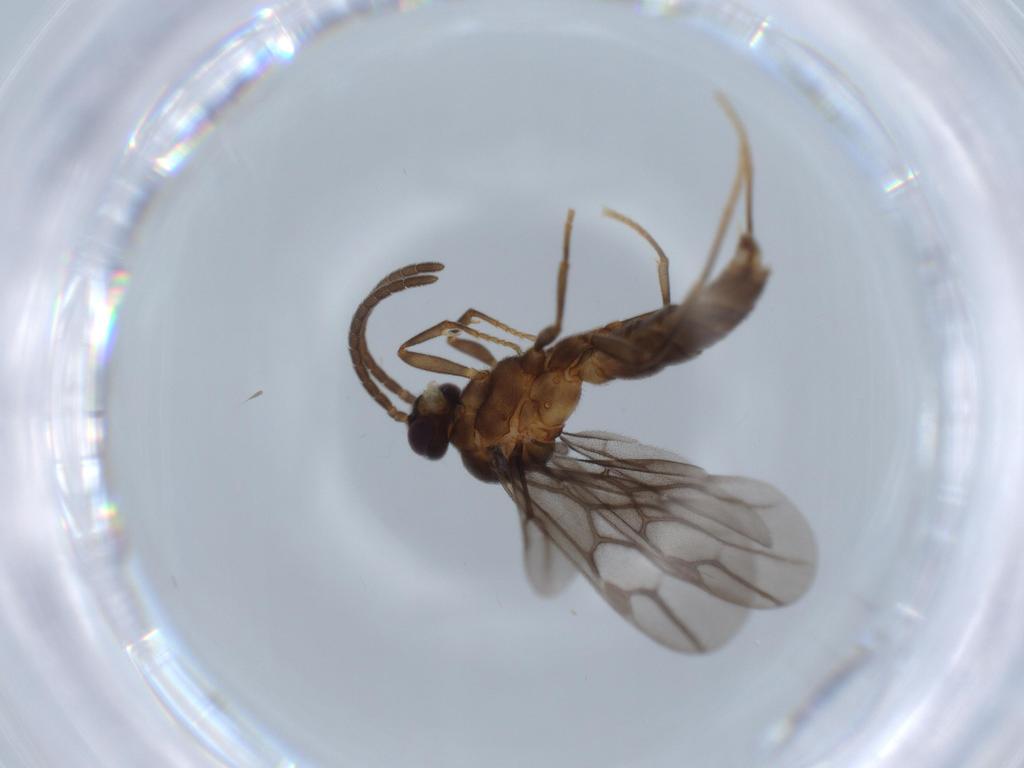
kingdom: Animalia
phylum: Arthropoda
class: Insecta
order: Hymenoptera
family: Formicidae
